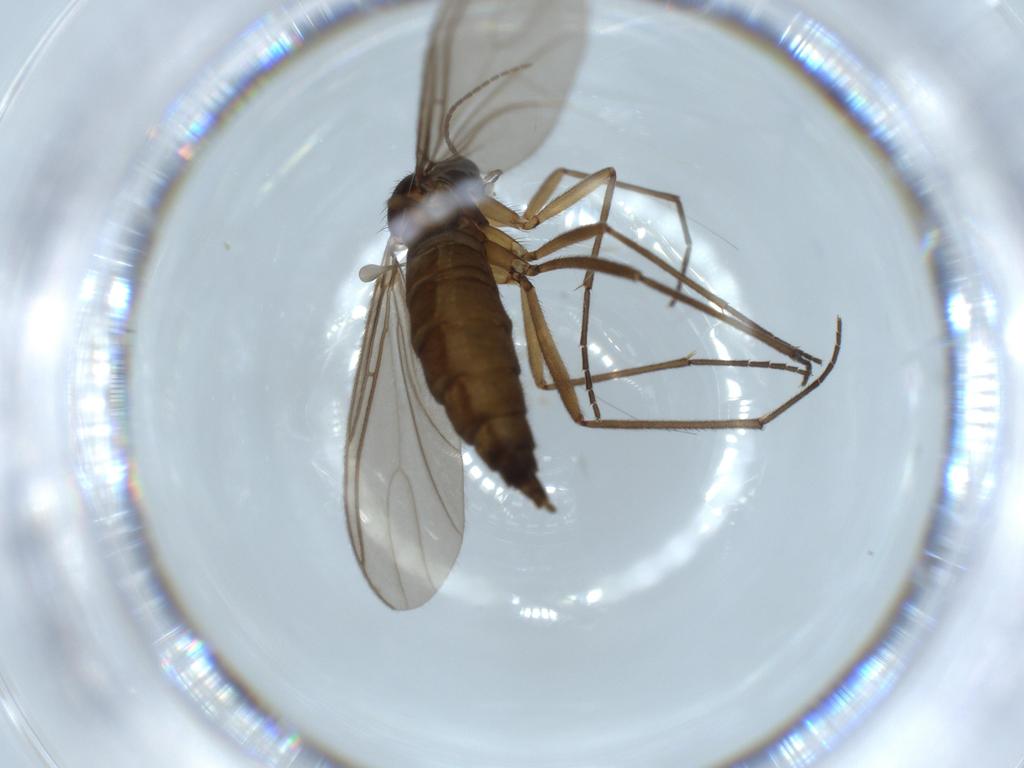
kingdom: Animalia
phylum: Arthropoda
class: Insecta
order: Diptera
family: Sciaridae
